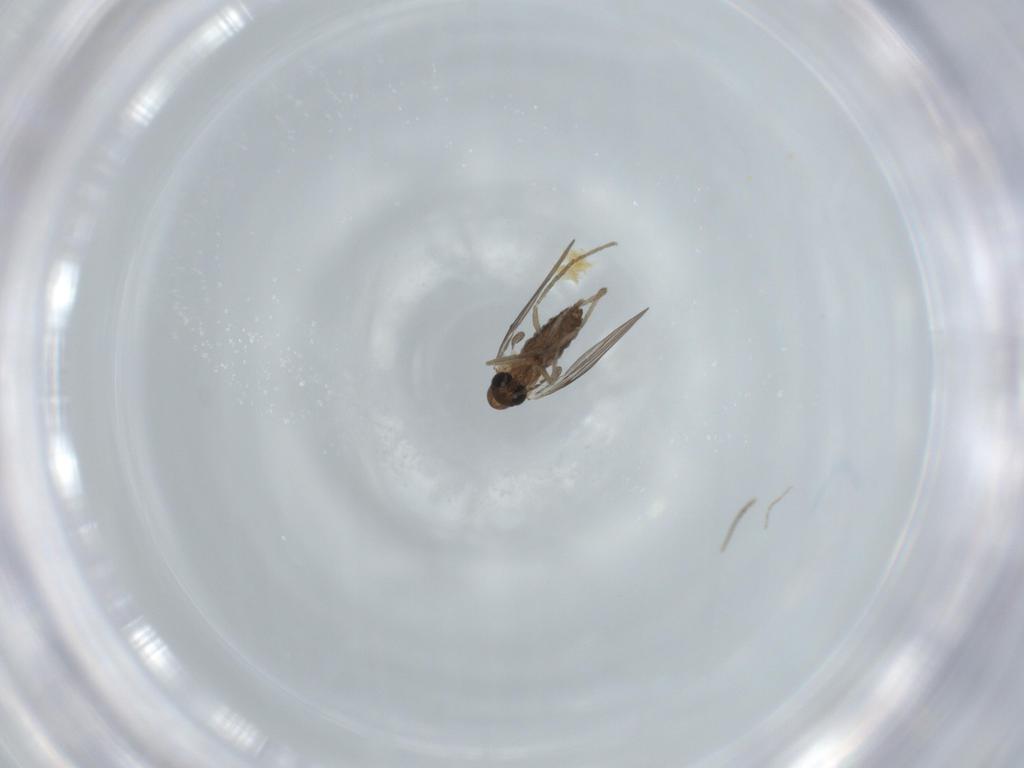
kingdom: Animalia
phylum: Arthropoda
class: Insecta
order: Diptera
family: Psychodidae
